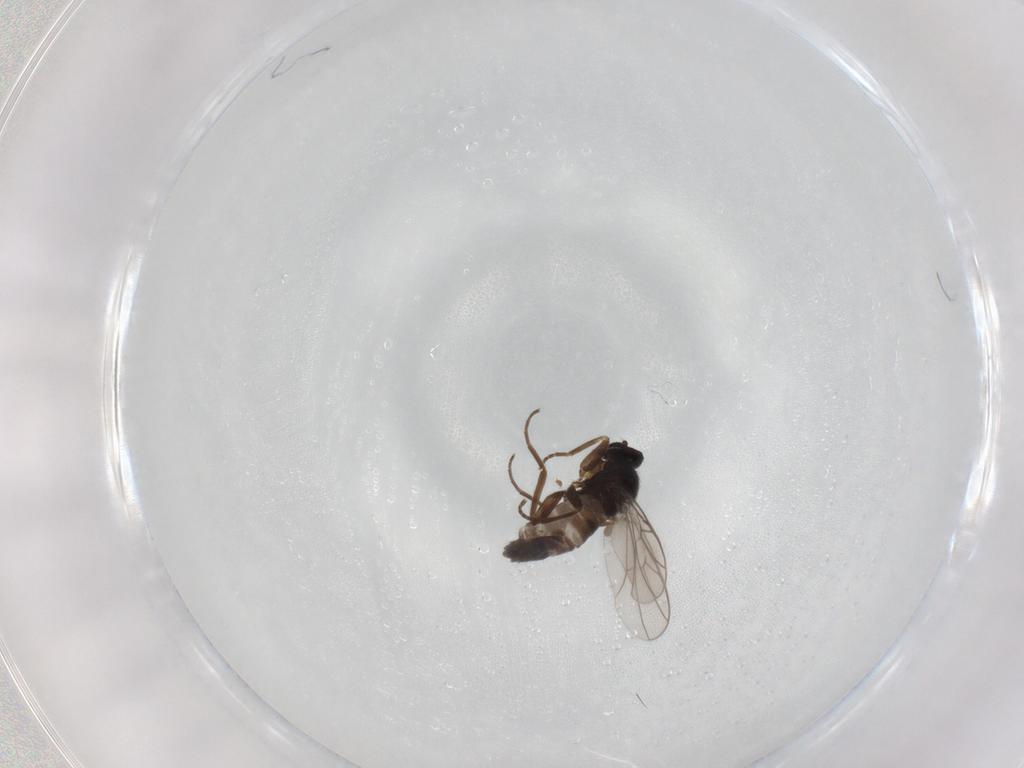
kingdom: Animalia
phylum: Arthropoda
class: Insecta
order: Diptera
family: Hybotidae
